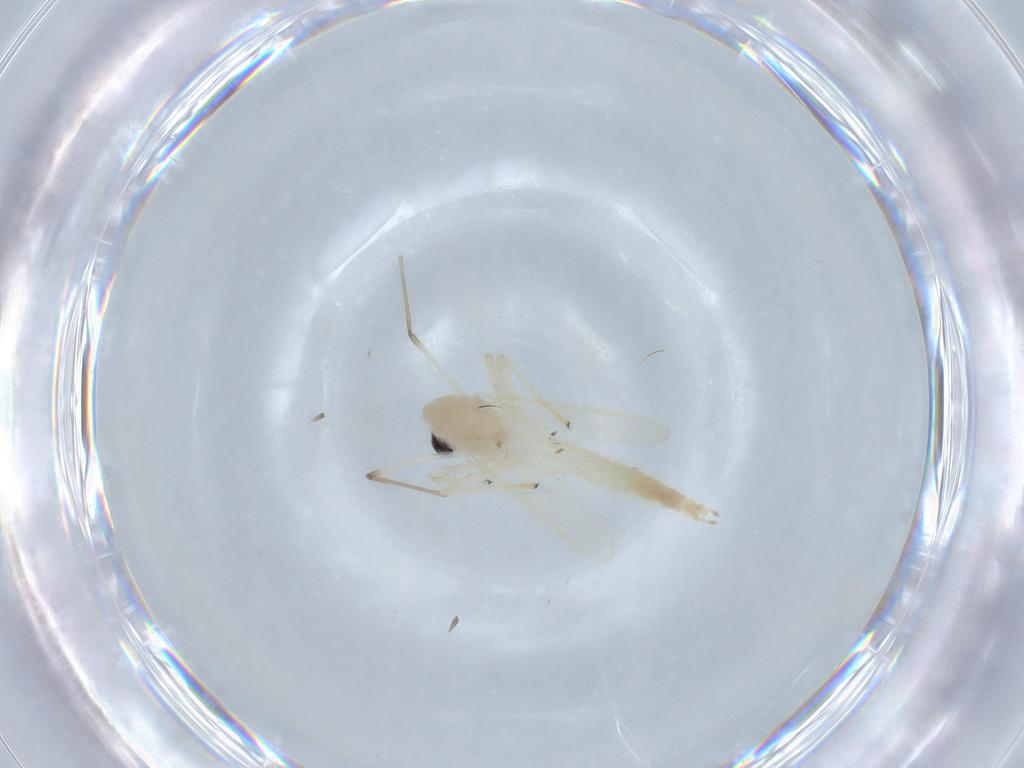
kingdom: Animalia
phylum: Arthropoda
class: Insecta
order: Diptera
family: Chironomidae
